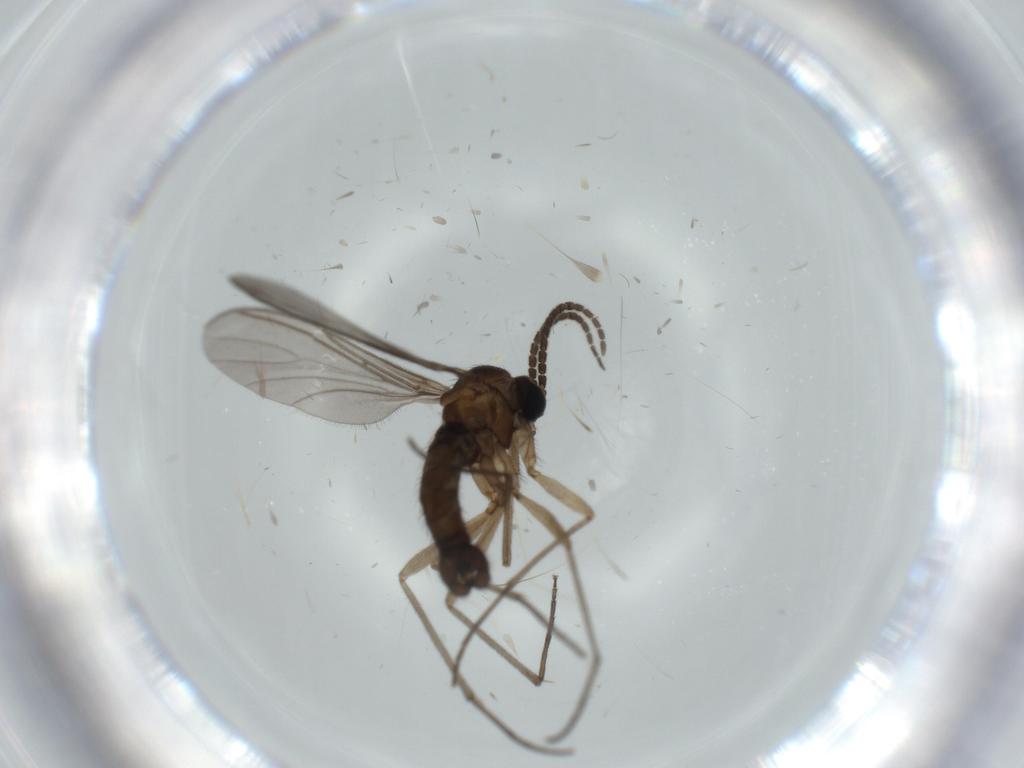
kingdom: Animalia
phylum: Arthropoda
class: Insecta
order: Diptera
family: Sciaridae
